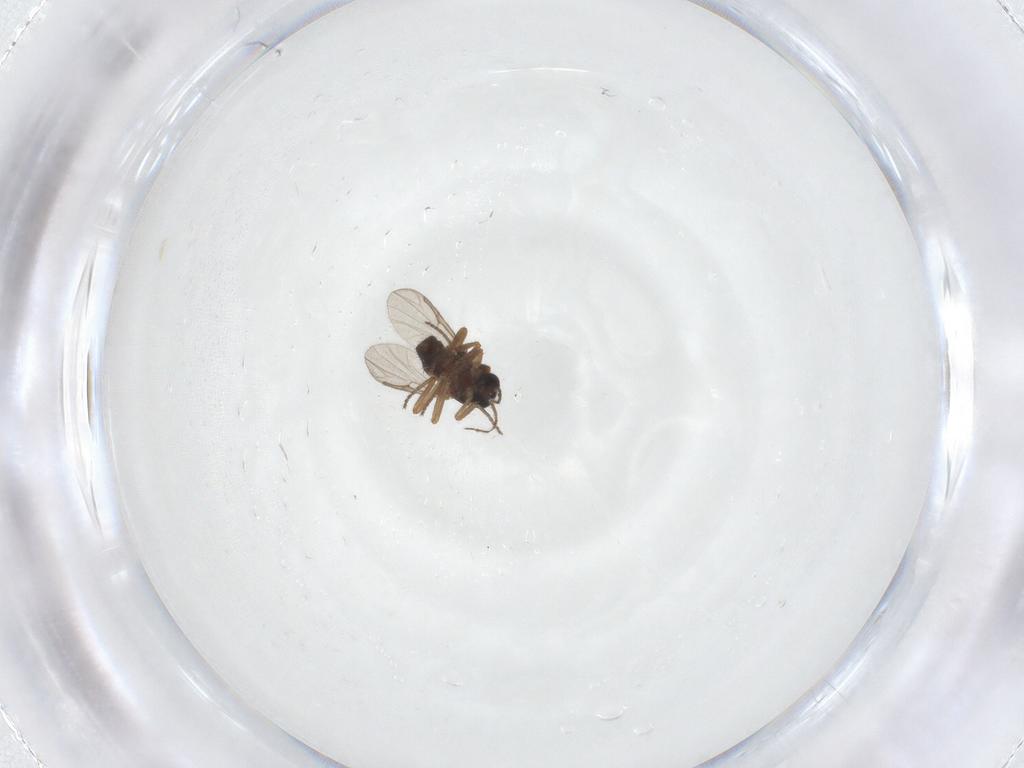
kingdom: Animalia
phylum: Arthropoda
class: Insecta
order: Diptera
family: Ceratopogonidae
